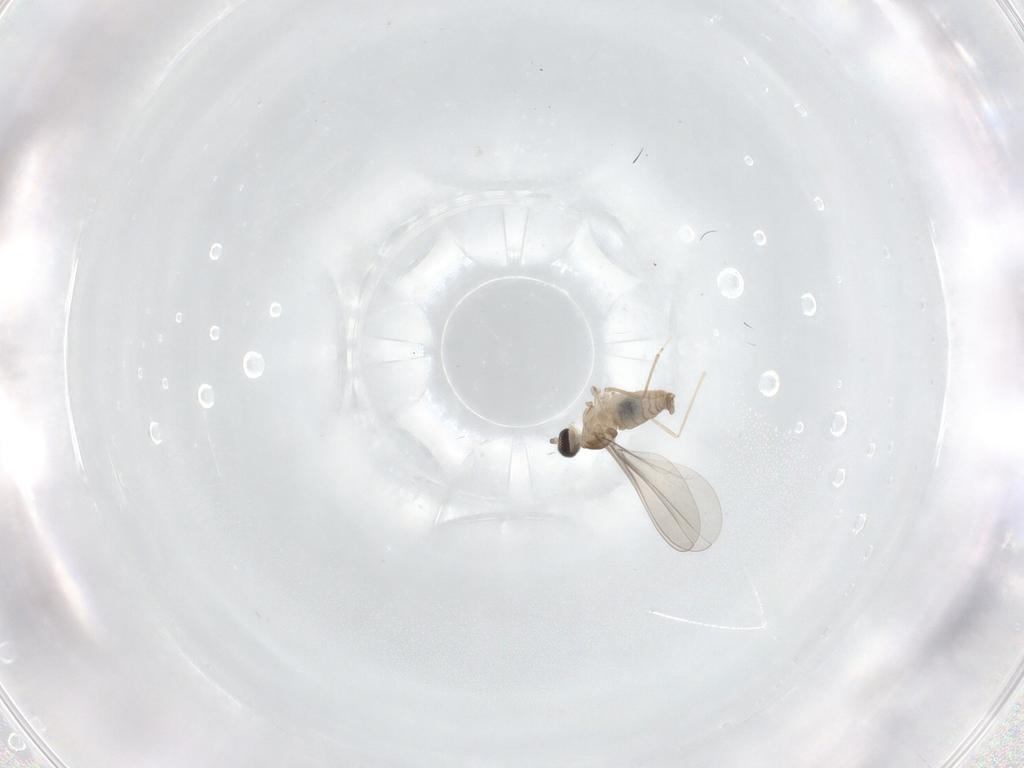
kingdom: Animalia
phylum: Arthropoda
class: Insecta
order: Diptera
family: Cecidomyiidae
